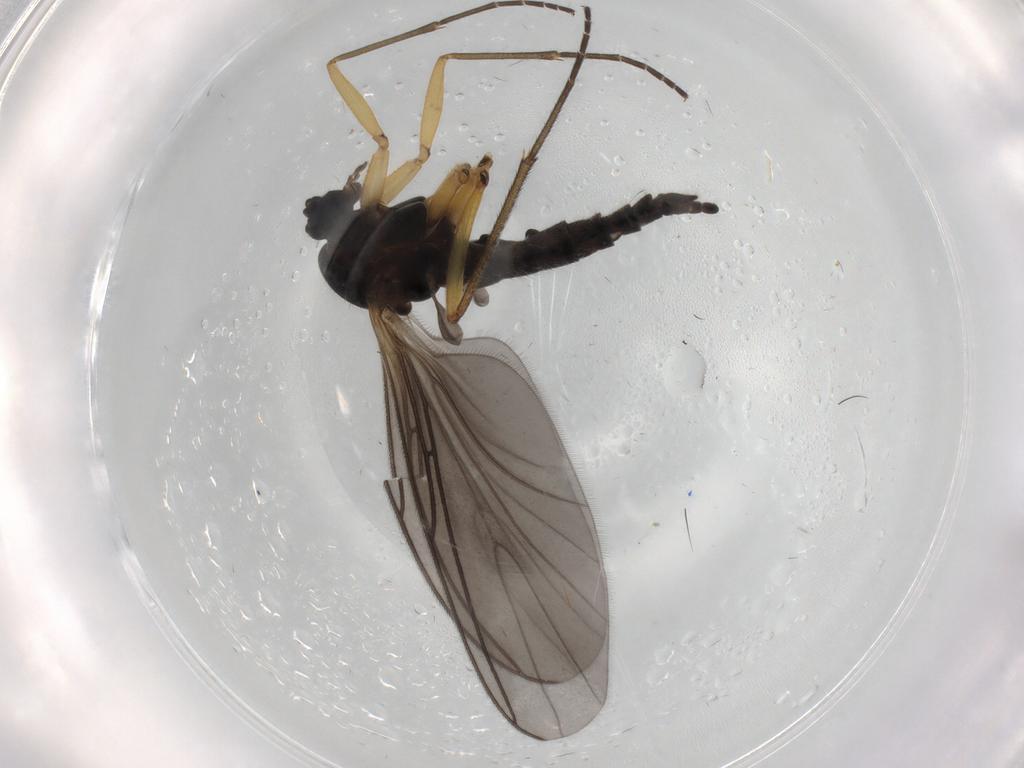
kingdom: Animalia
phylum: Arthropoda
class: Insecta
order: Diptera
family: Sciaridae
